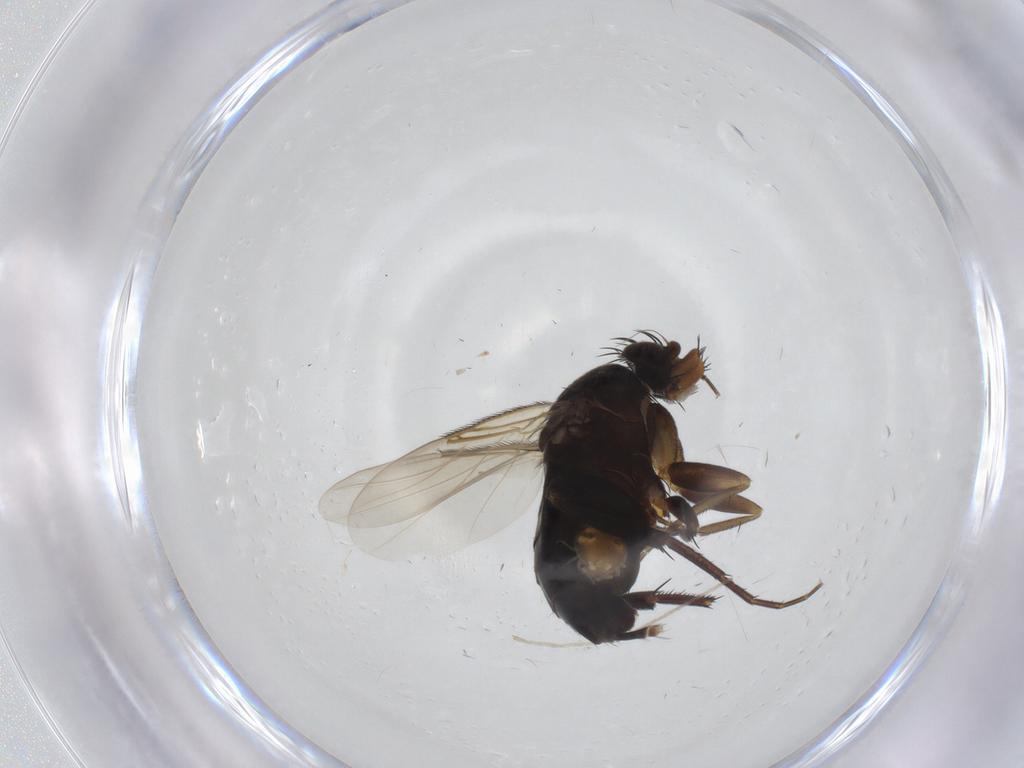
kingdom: Animalia
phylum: Arthropoda
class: Insecta
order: Diptera
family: Phoridae
